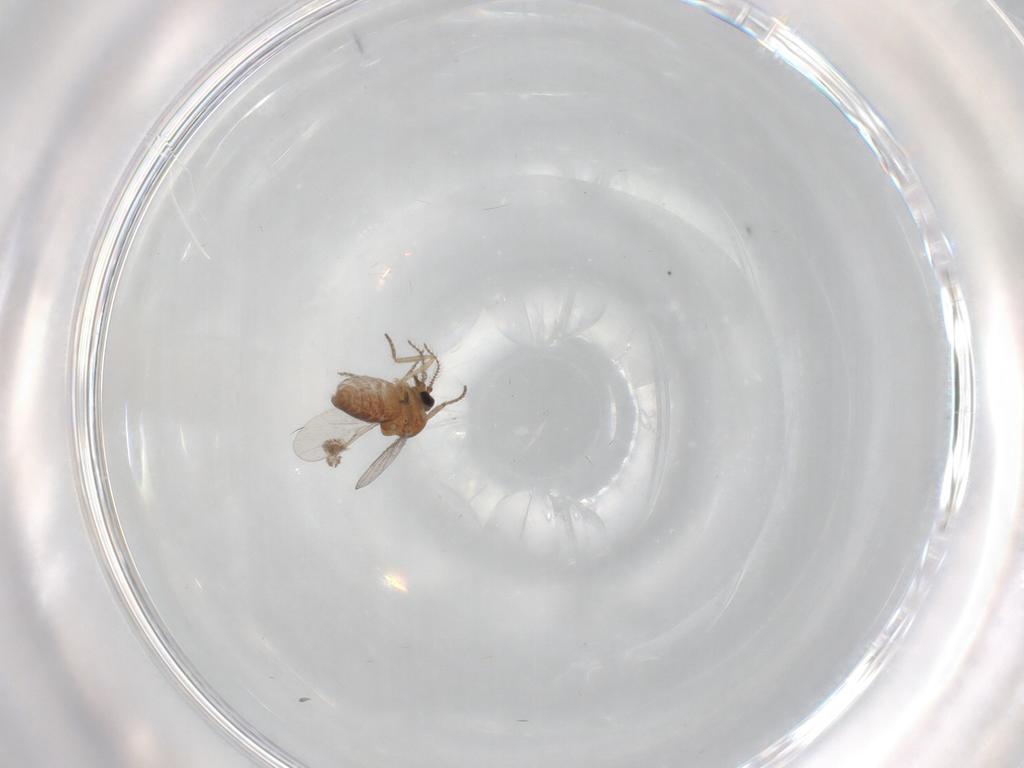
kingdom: Animalia
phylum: Arthropoda
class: Insecta
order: Diptera
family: Ceratopogonidae
